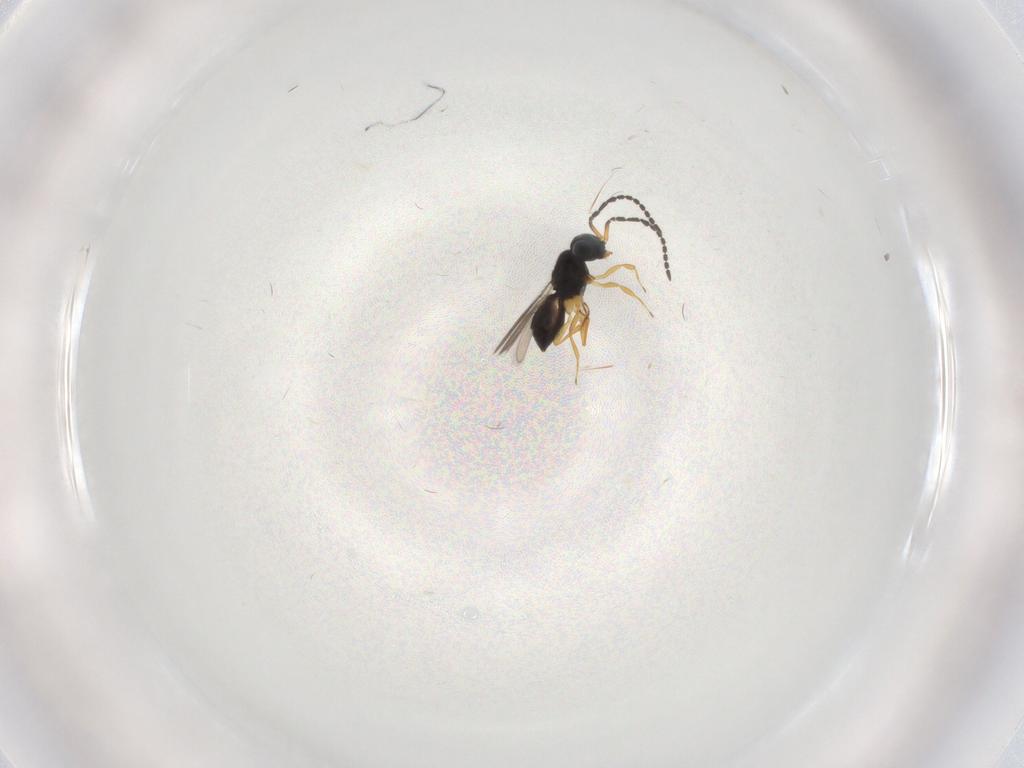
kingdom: Animalia
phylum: Arthropoda
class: Insecta
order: Hymenoptera
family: Scelionidae
